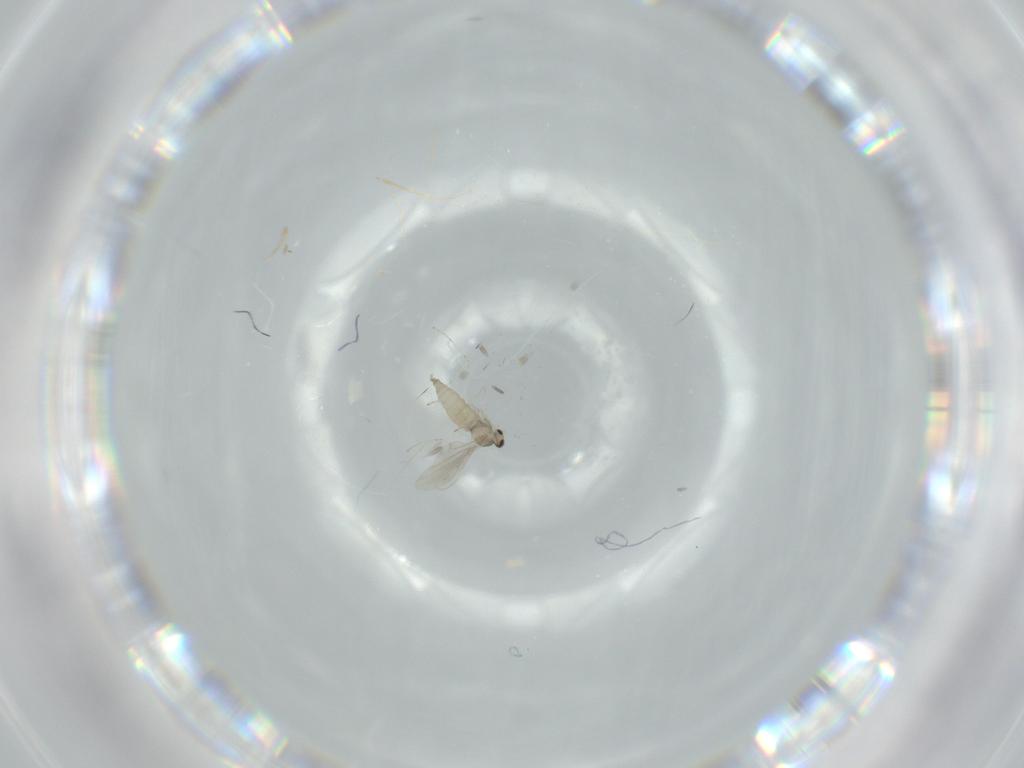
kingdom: Animalia
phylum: Arthropoda
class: Insecta
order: Diptera
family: Cecidomyiidae
